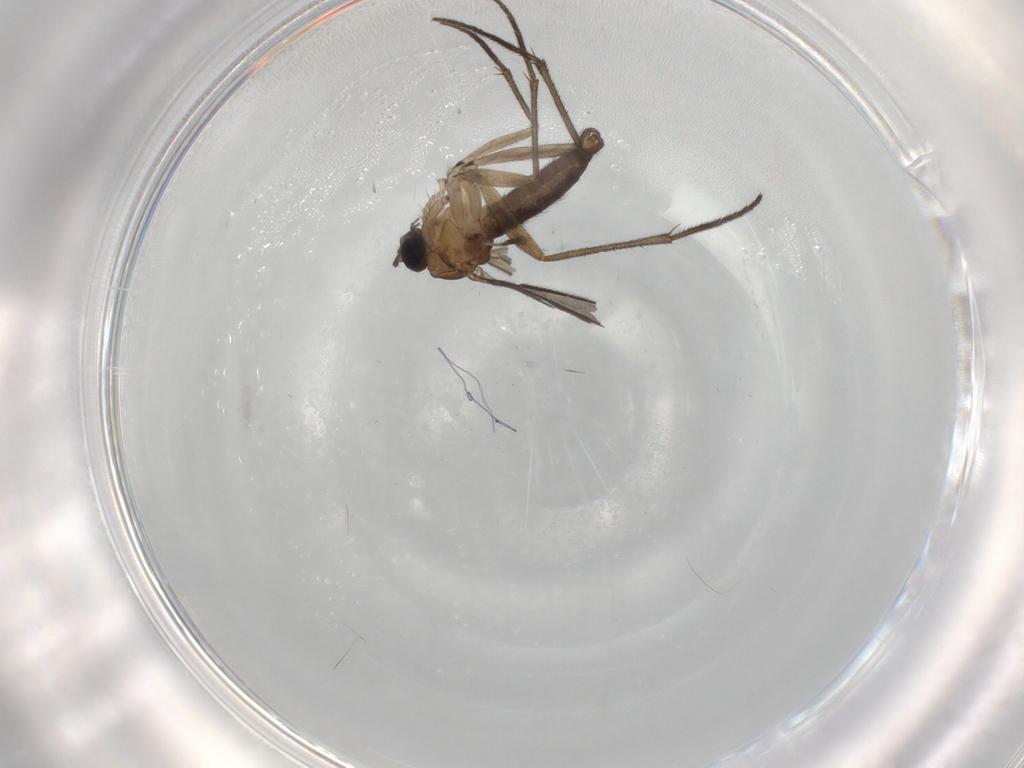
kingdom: Animalia
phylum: Arthropoda
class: Insecta
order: Diptera
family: Sciaridae
